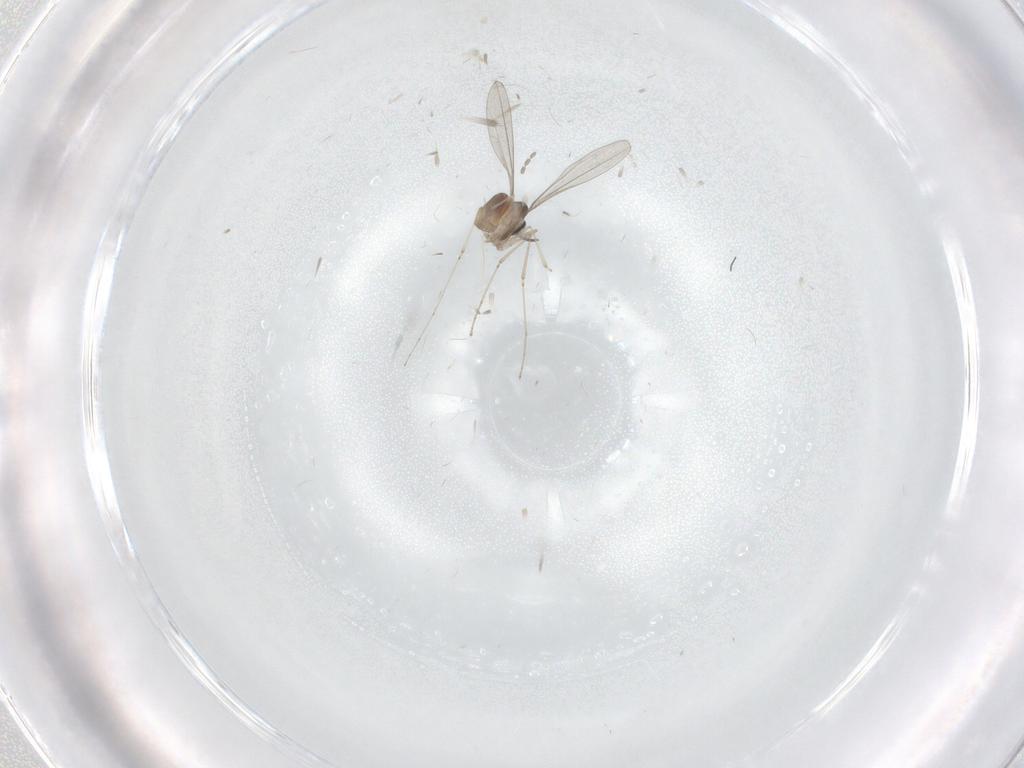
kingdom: Animalia
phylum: Arthropoda
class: Insecta
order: Diptera
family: Cecidomyiidae
